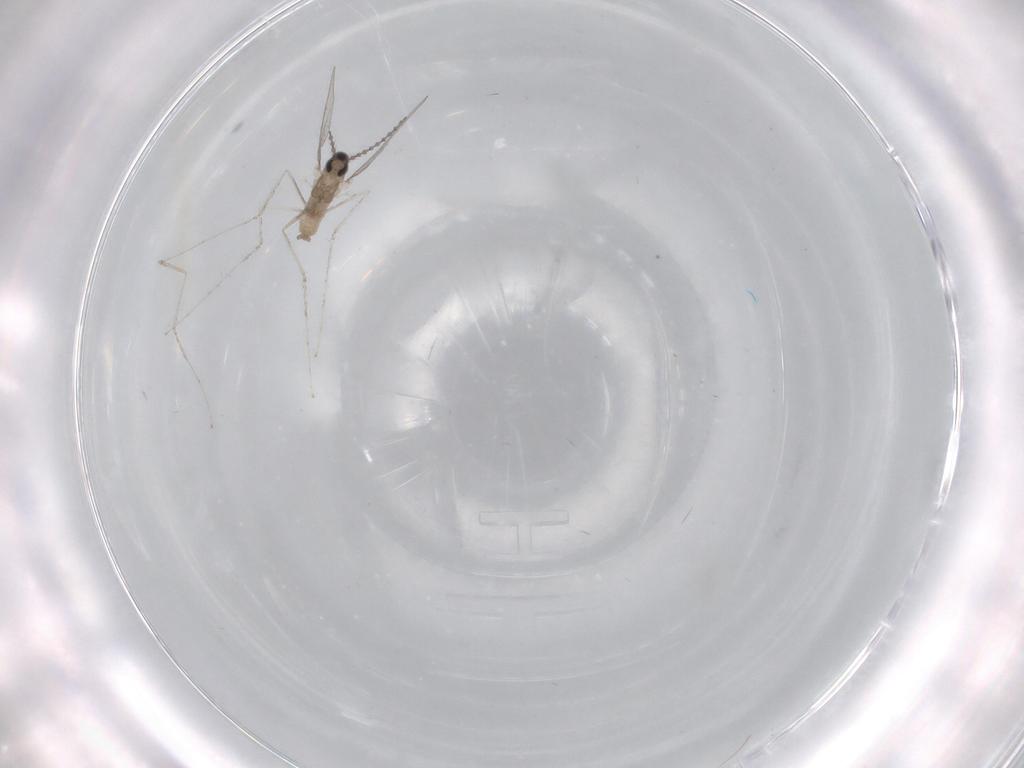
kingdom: Animalia
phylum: Arthropoda
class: Insecta
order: Diptera
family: Cecidomyiidae
